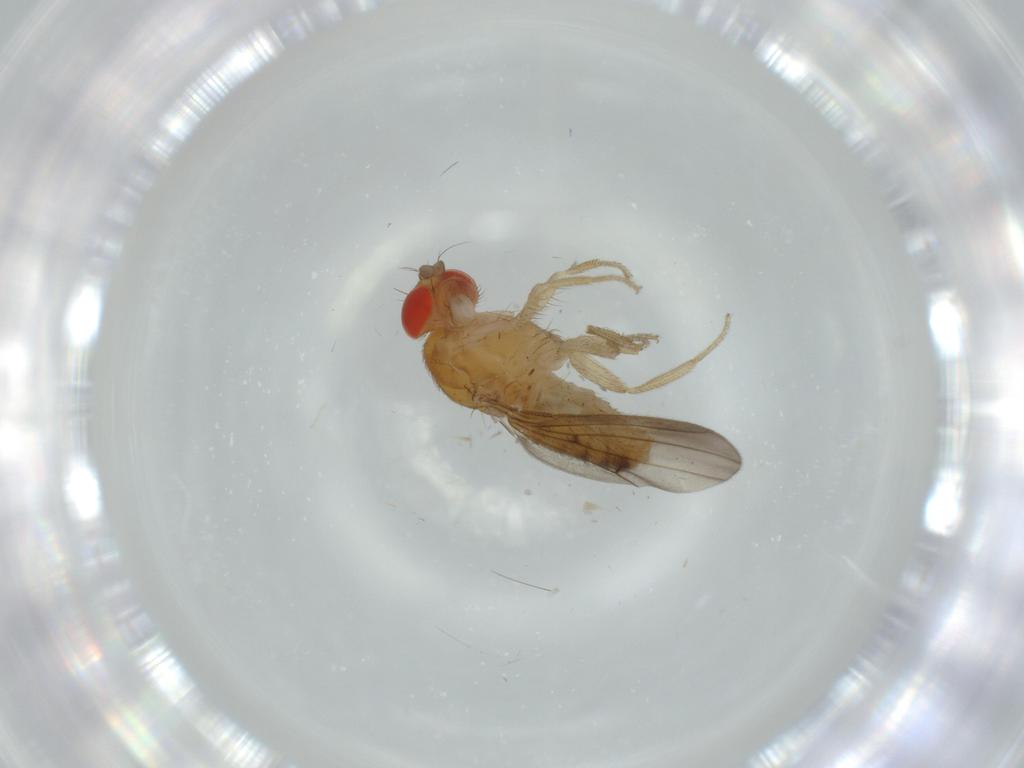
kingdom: Animalia
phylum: Arthropoda
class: Insecta
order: Diptera
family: Drosophilidae
